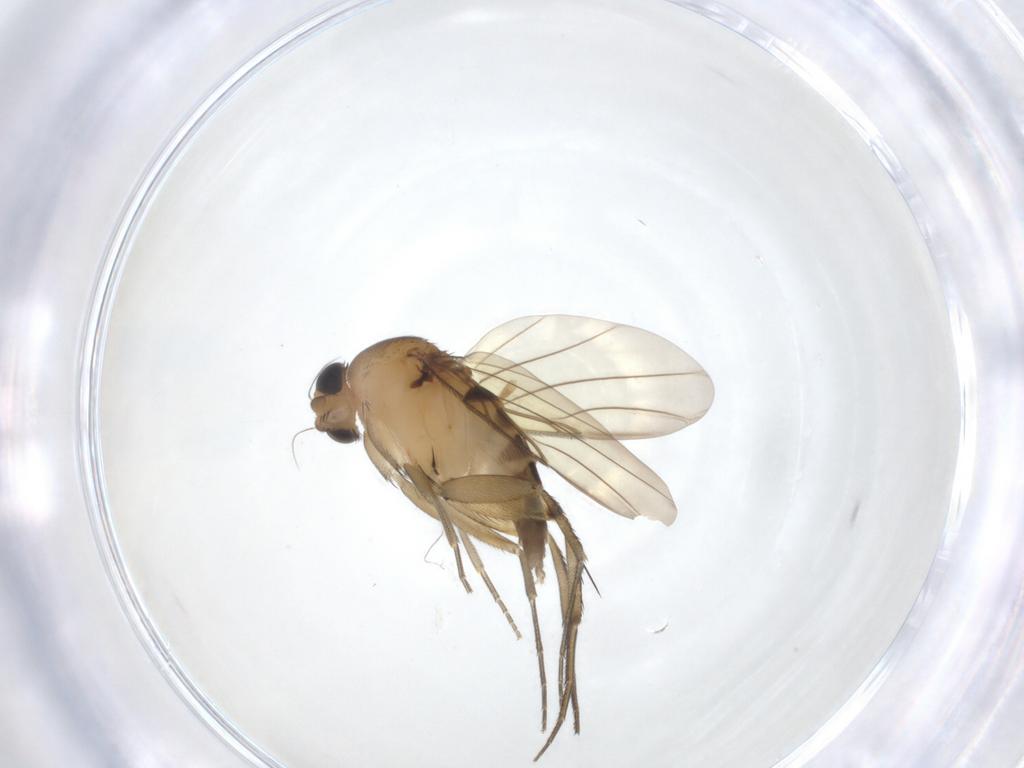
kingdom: Animalia
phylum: Arthropoda
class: Insecta
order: Diptera
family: Phoridae
